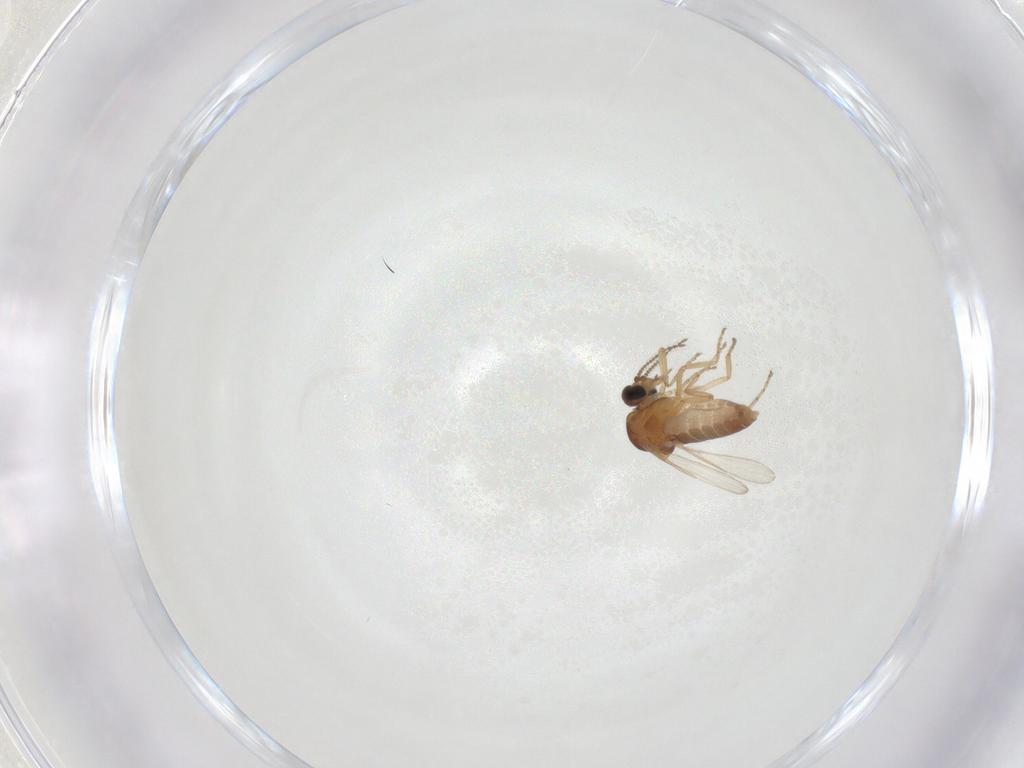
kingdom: Animalia
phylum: Arthropoda
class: Insecta
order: Diptera
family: Ceratopogonidae
